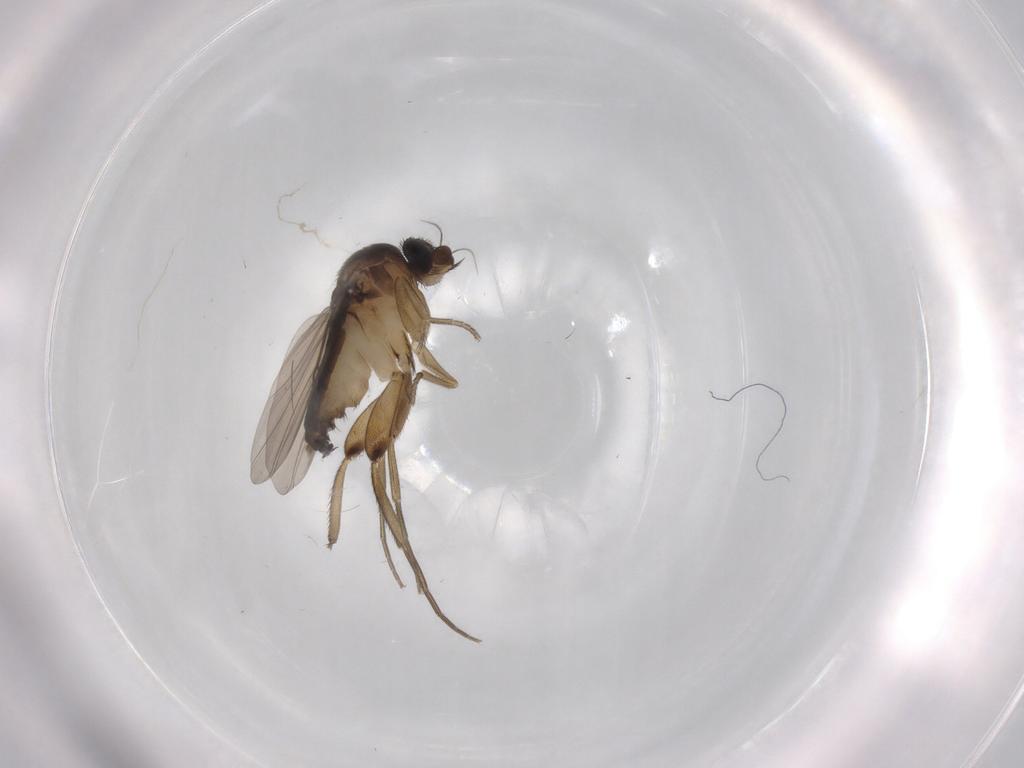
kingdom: Animalia
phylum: Arthropoda
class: Insecta
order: Diptera
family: Phoridae
